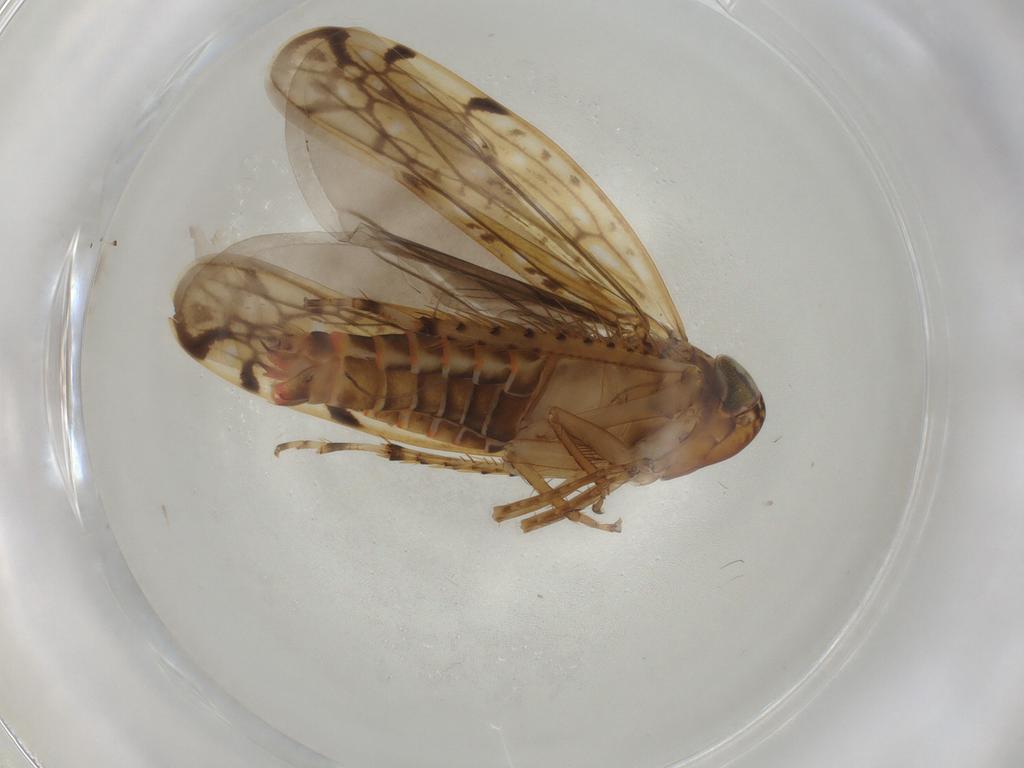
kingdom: Animalia
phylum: Arthropoda
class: Insecta
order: Hemiptera
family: Cicadellidae
